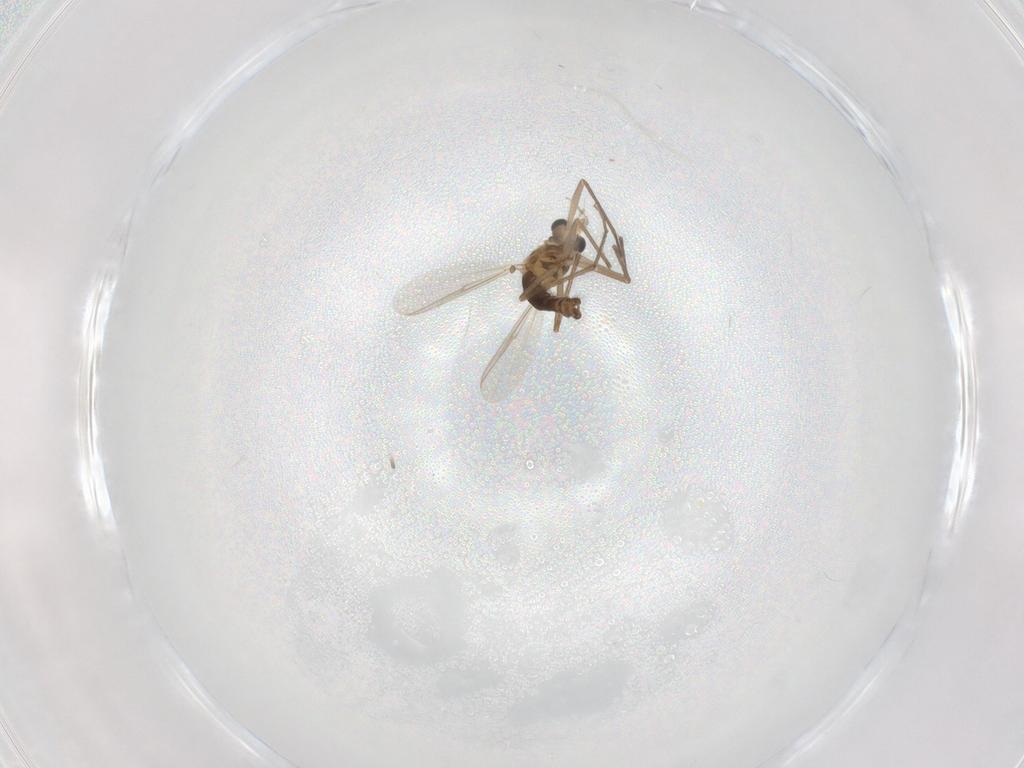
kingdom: Animalia
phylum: Arthropoda
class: Insecta
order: Diptera
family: Chironomidae
